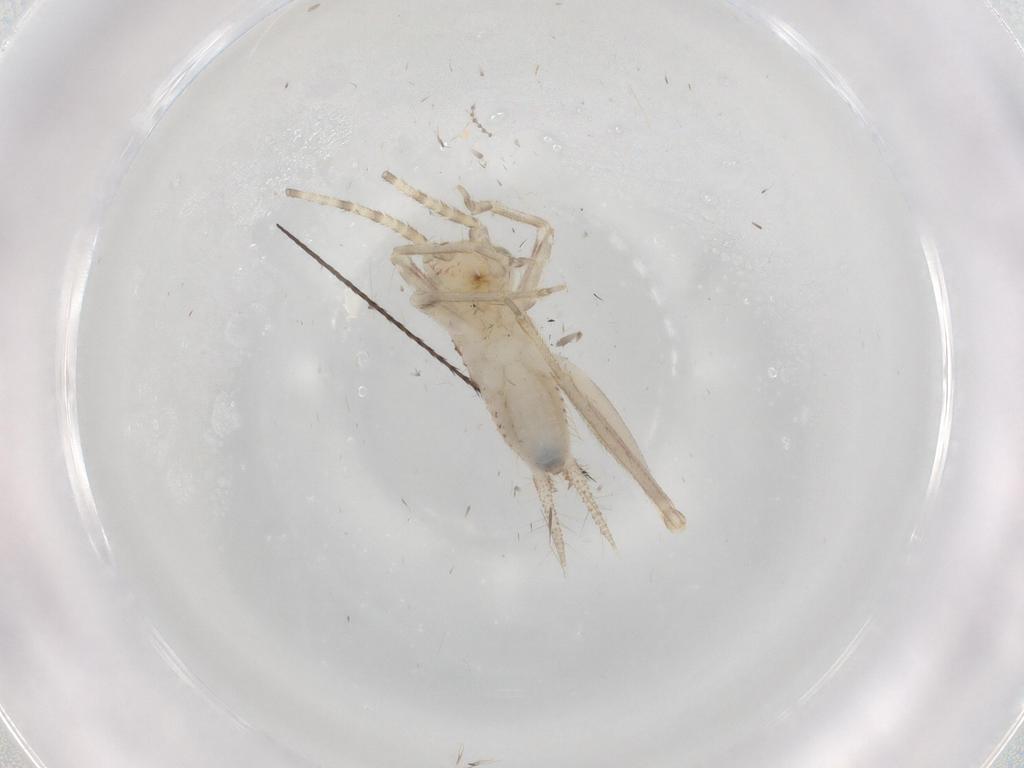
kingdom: Animalia
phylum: Arthropoda
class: Insecta
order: Orthoptera
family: Trigonidiidae
